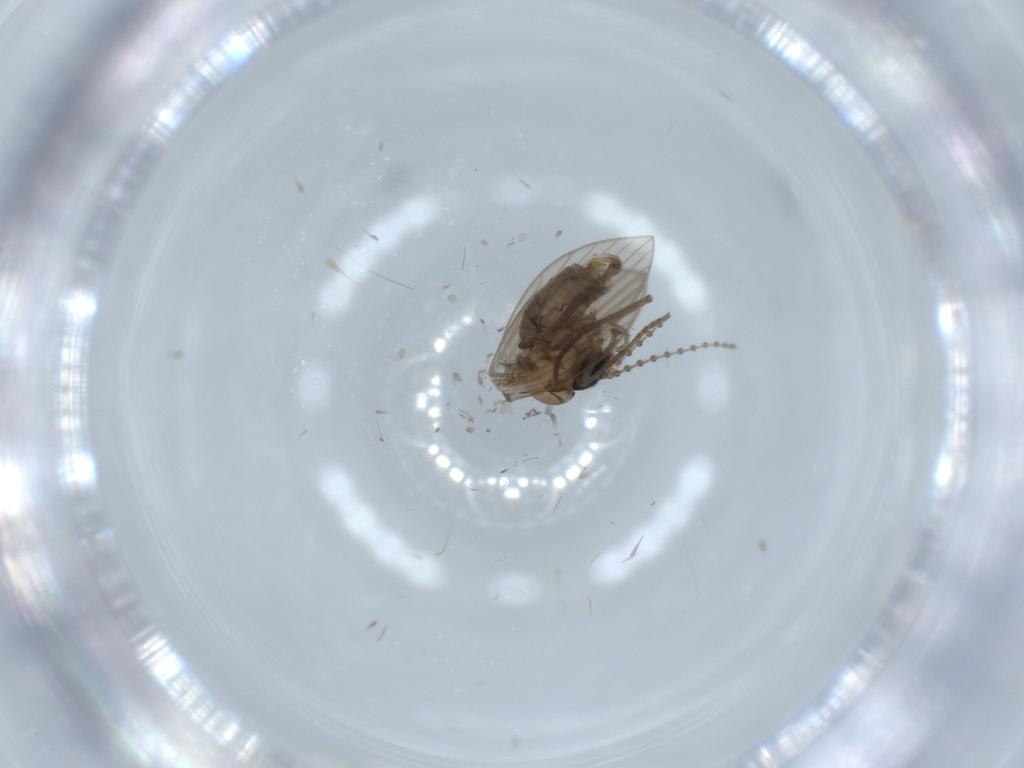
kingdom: Animalia
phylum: Arthropoda
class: Insecta
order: Diptera
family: Psychodidae
